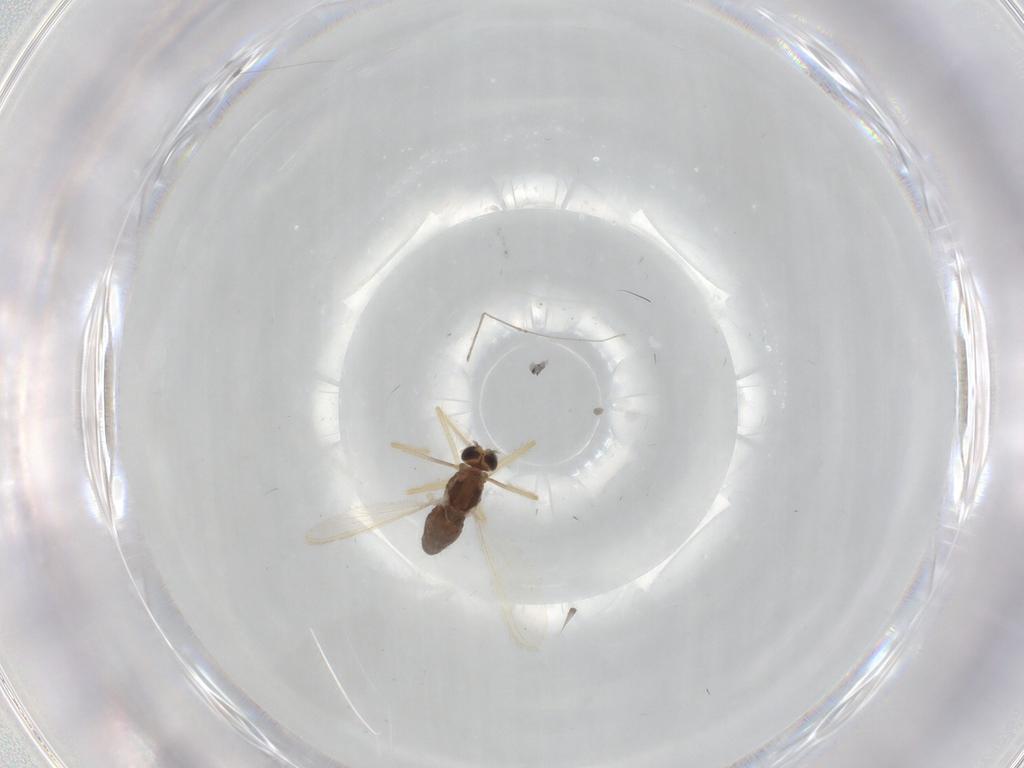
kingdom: Animalia
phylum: Arthropoda
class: Insecta
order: Diptera
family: Chironomidae
